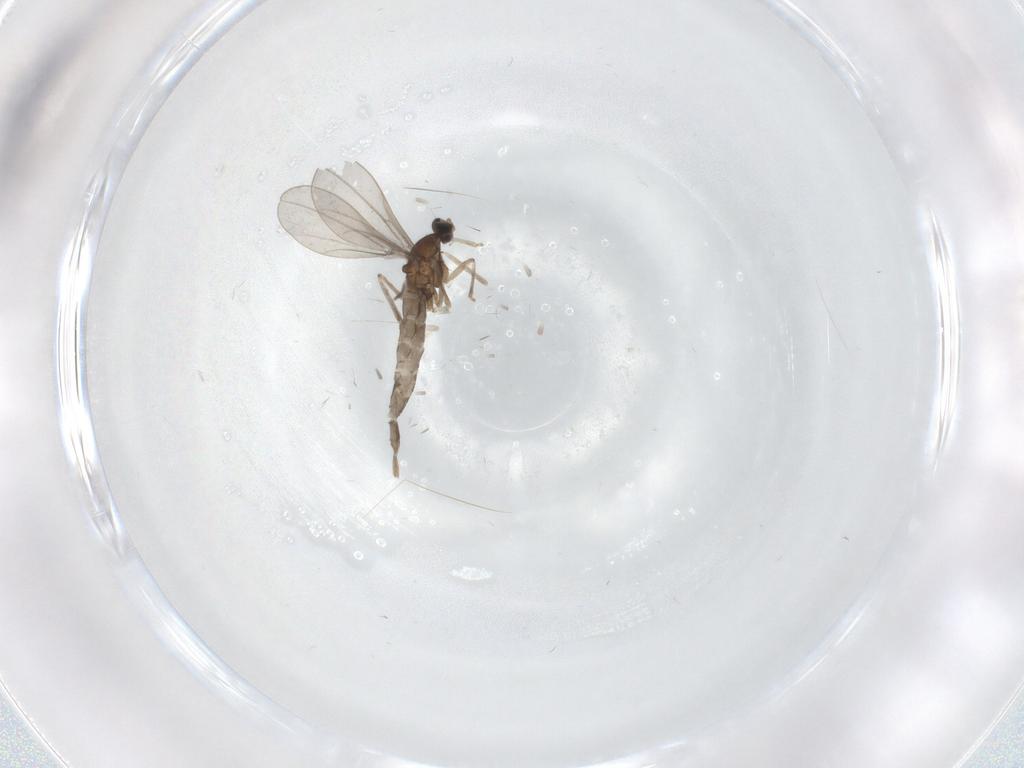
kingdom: Animalia
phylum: Arthropoda
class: Insecta
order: Diptera
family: Cecidomyiidae
